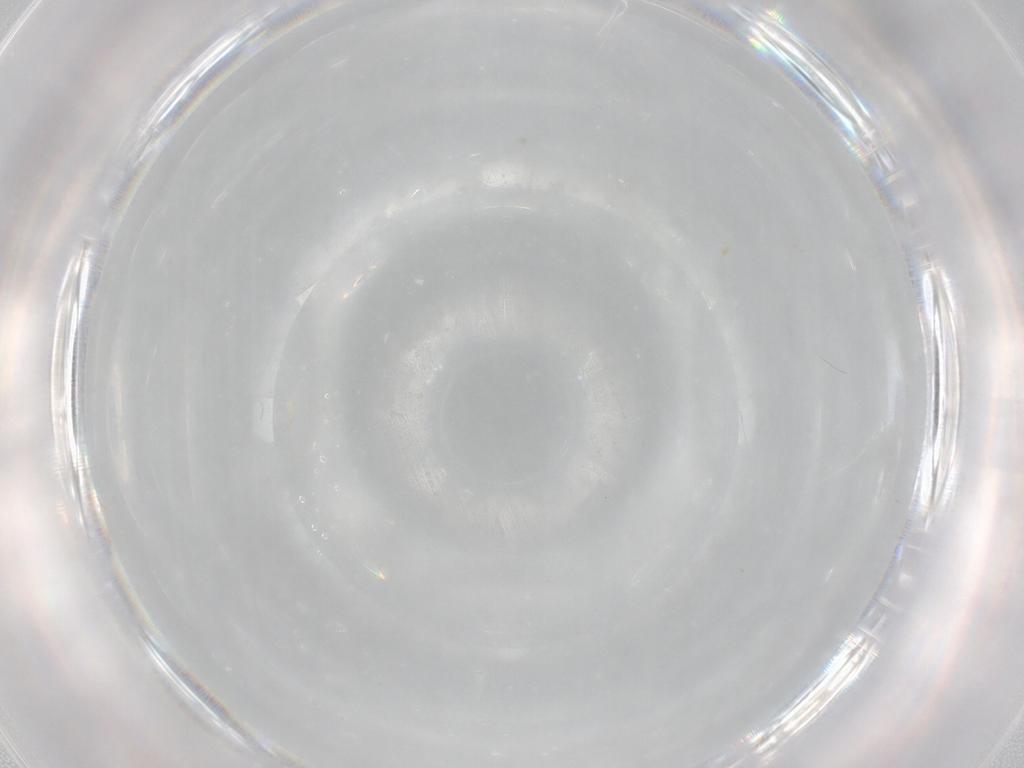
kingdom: Animalia
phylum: Arthropoda
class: Arachnida
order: Trombidiformes
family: Eupodidae
